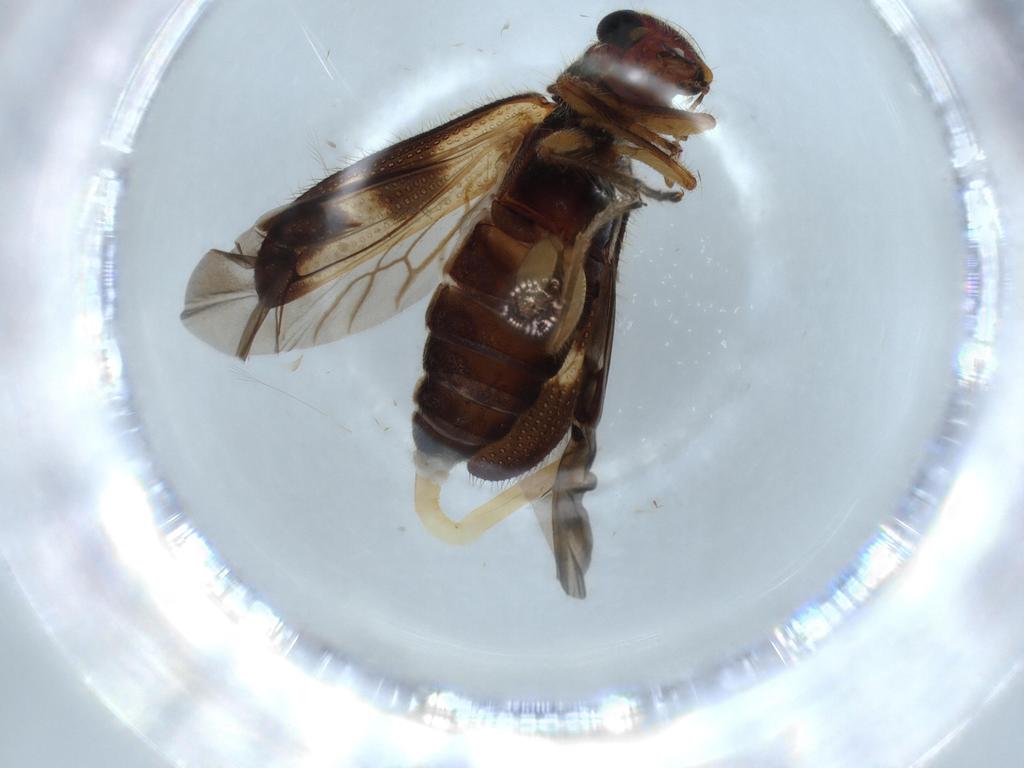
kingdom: Animalia
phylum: Arthropoda
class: Insecta
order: Coleoptera
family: Chrysomelidae
